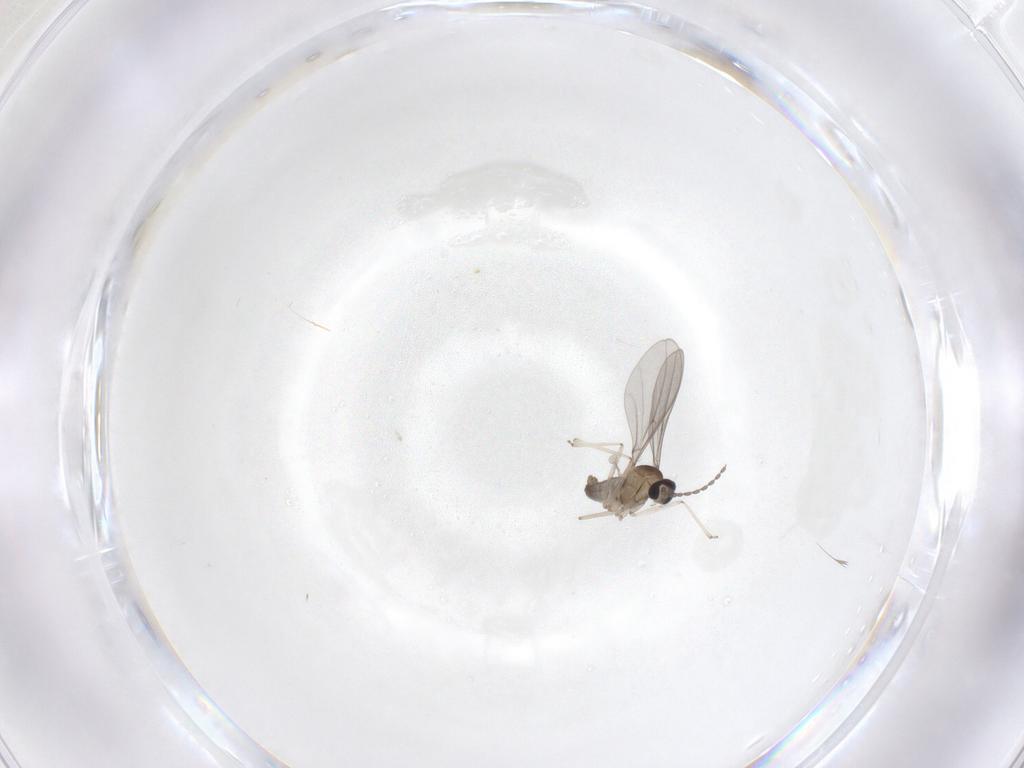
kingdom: Animalia
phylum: Arthropoda
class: Insecta
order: Diptera
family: Cecidomyiidae
